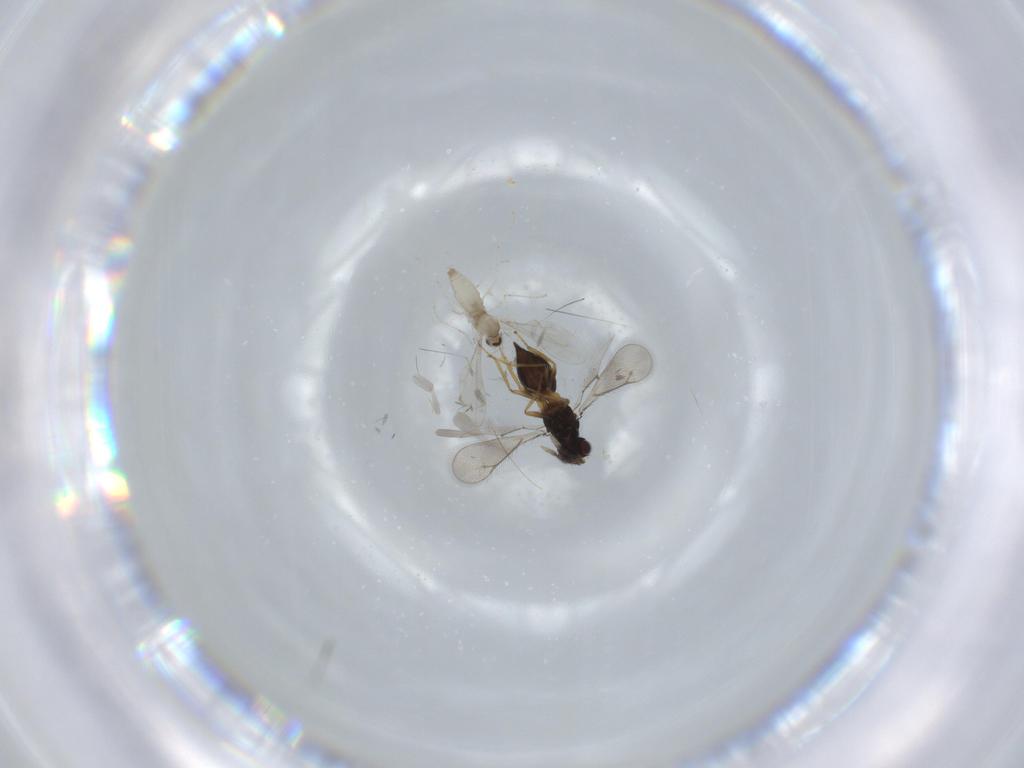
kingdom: Animalia
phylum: Arthropoda
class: Insecta
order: Diptera
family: Cecidomyiidae
